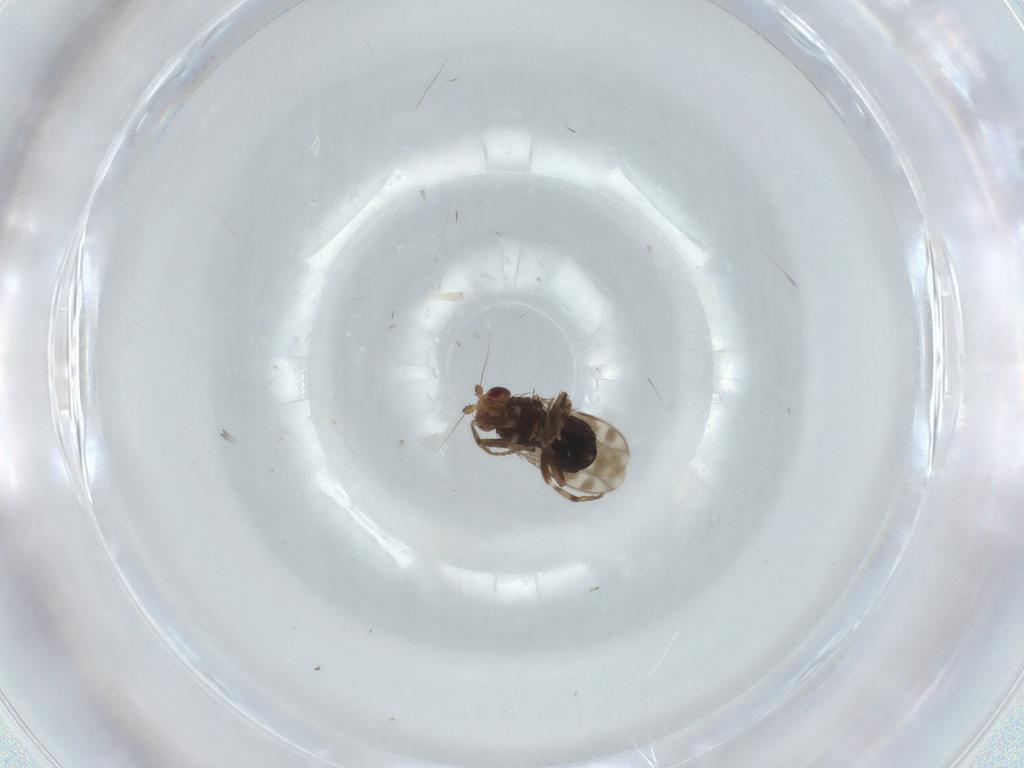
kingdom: Animalia
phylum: Arthropoda
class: Insecta
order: Diptera
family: Sphaeroceridae
